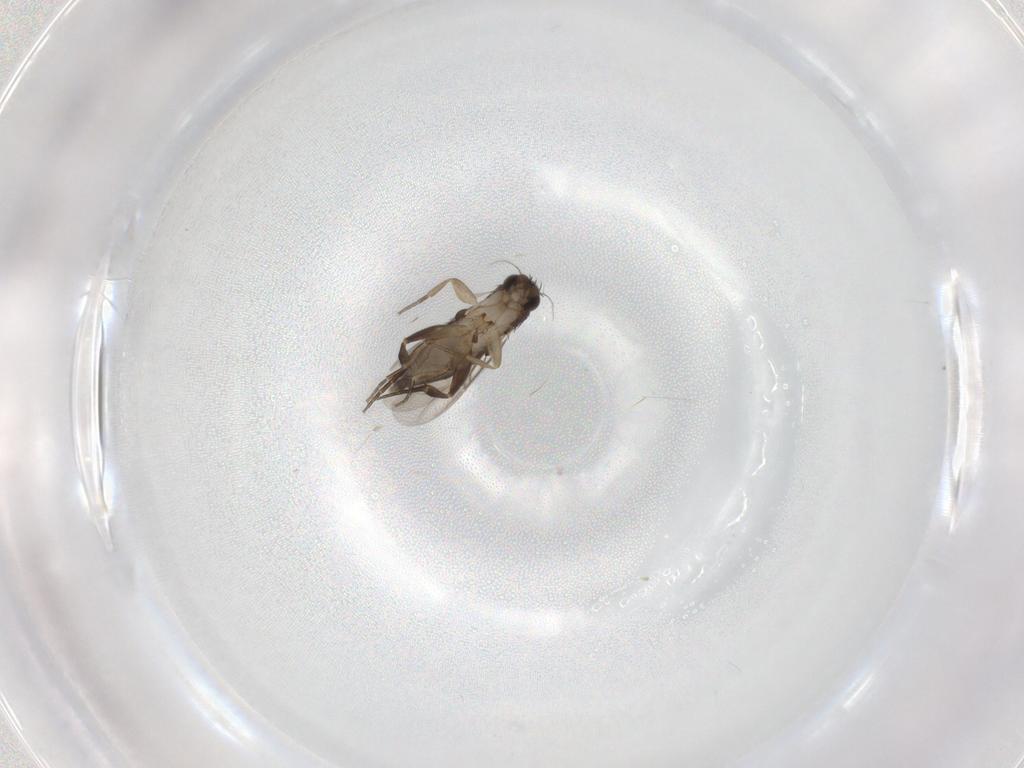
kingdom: Animalia
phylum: Arthropoda
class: Insecta
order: Diptera
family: Phoridae
